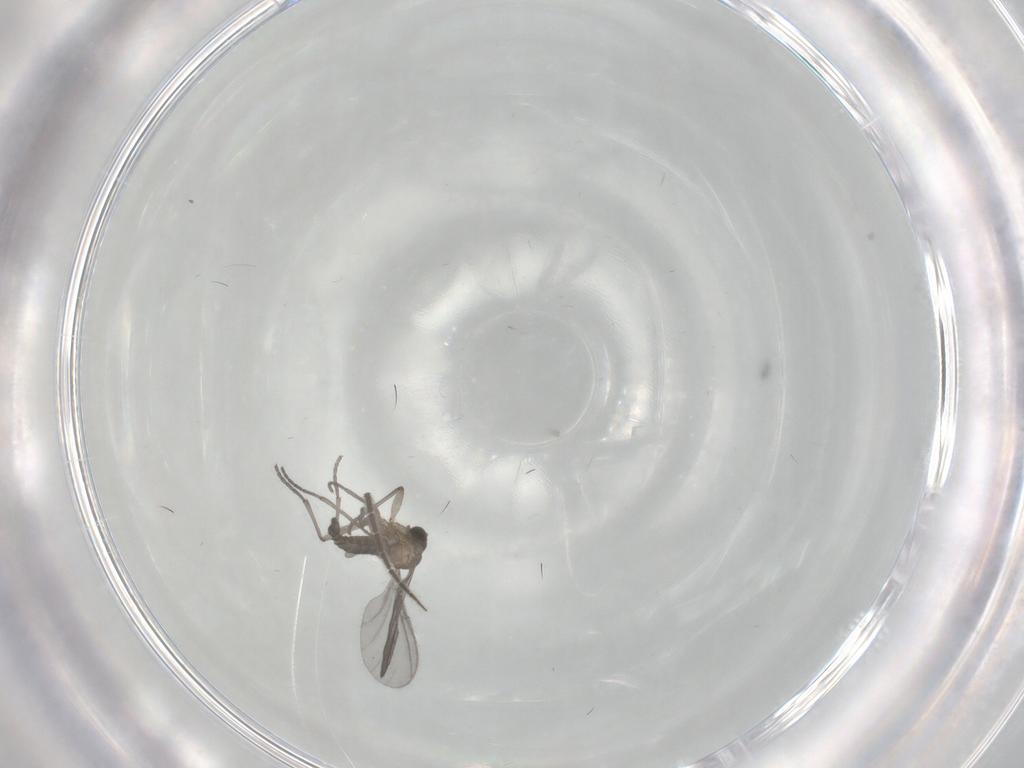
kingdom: Animalia
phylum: Arthropoda
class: Insecta
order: Diptera
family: Sciaridae
